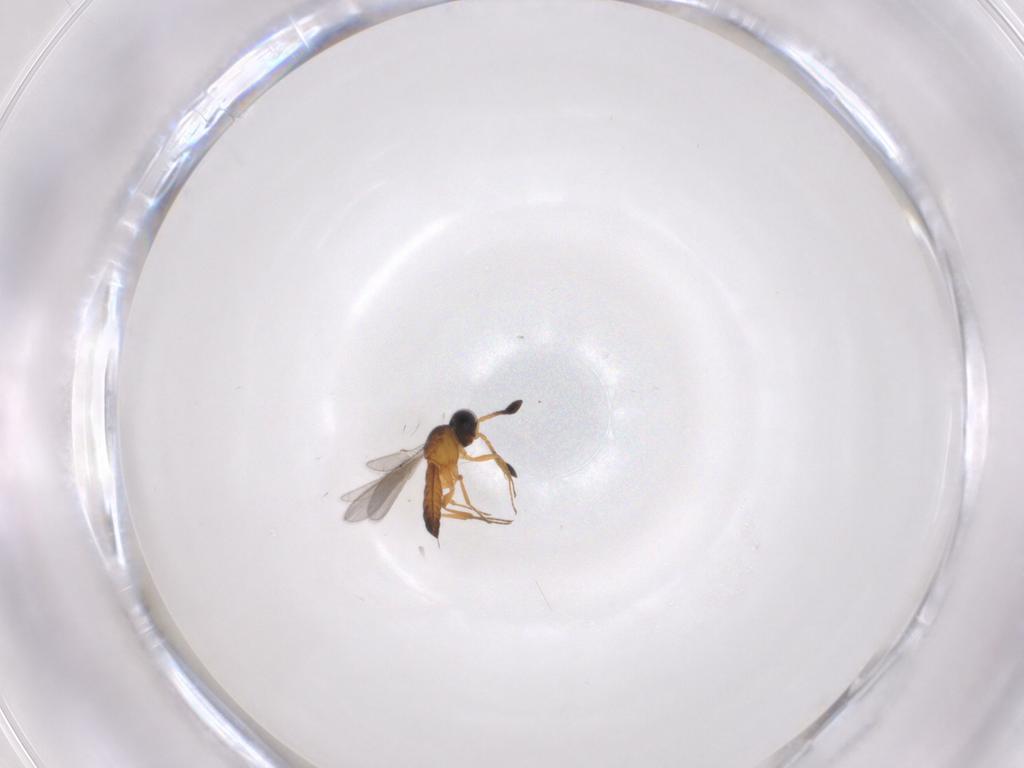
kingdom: Animalia
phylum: Arthropoda
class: Insecta
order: Hymenoptera
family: Scelionidae
